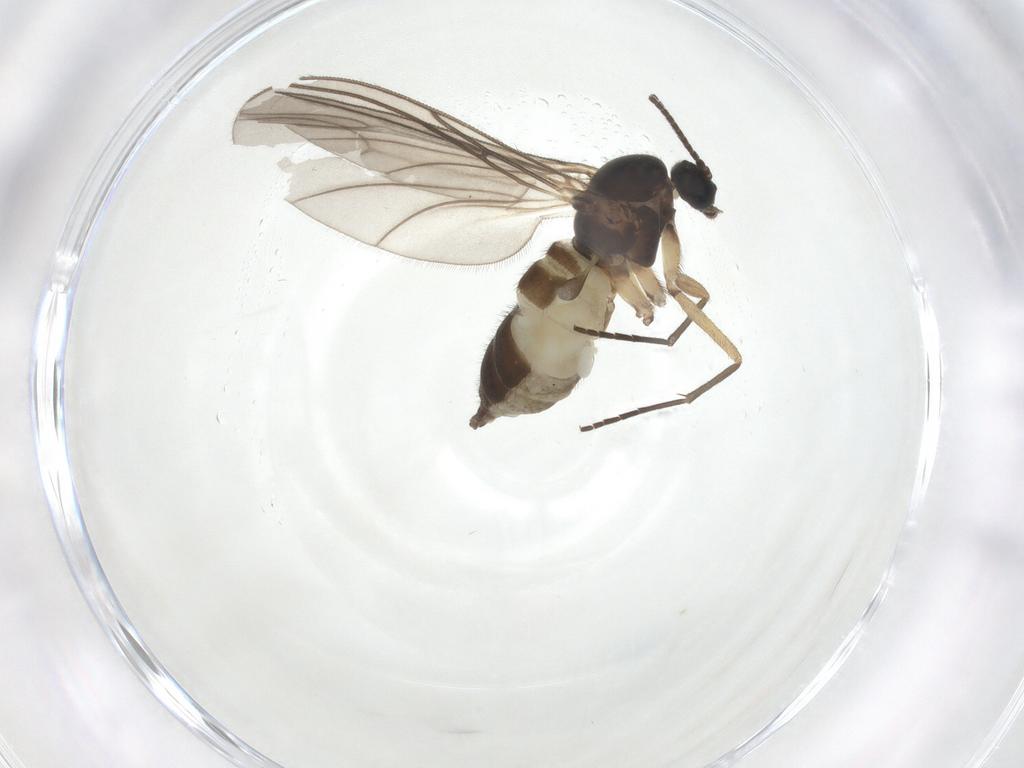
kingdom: Animalia
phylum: Arthropoda
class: Insecta
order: Diptera
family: Sciaridae
